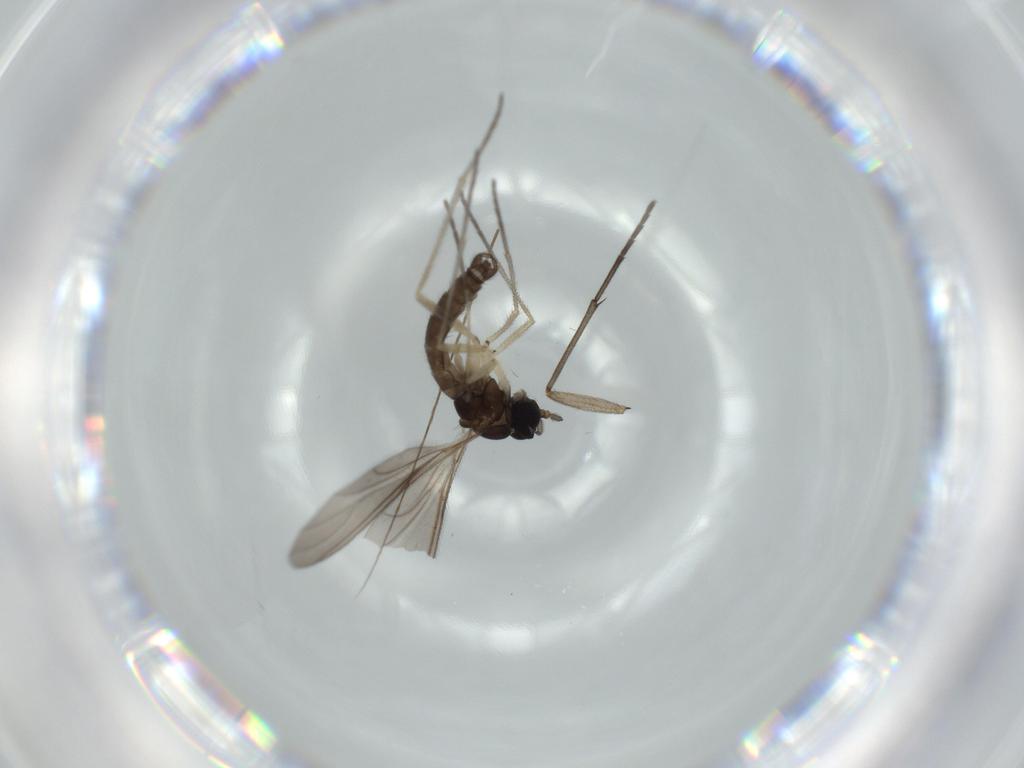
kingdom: Animalia
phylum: Arthropoda
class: Insecta
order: Diptera
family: Sciaridae
